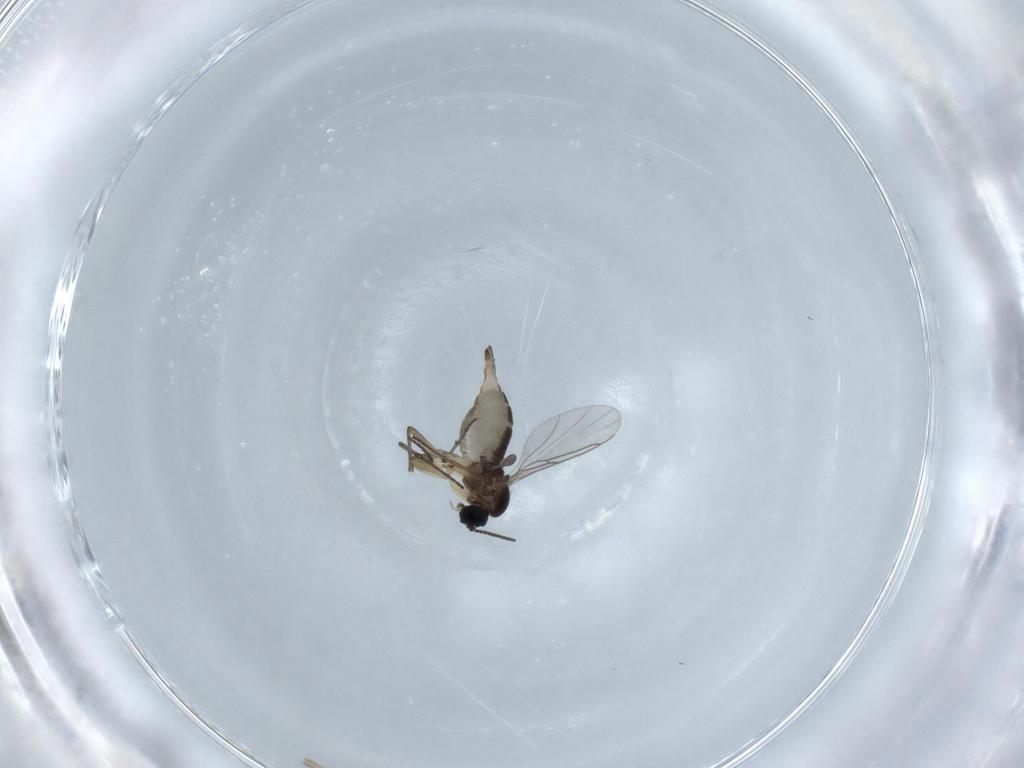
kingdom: Animalia
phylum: Arthropoda
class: Insecta
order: Diptera
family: Sciaridae
